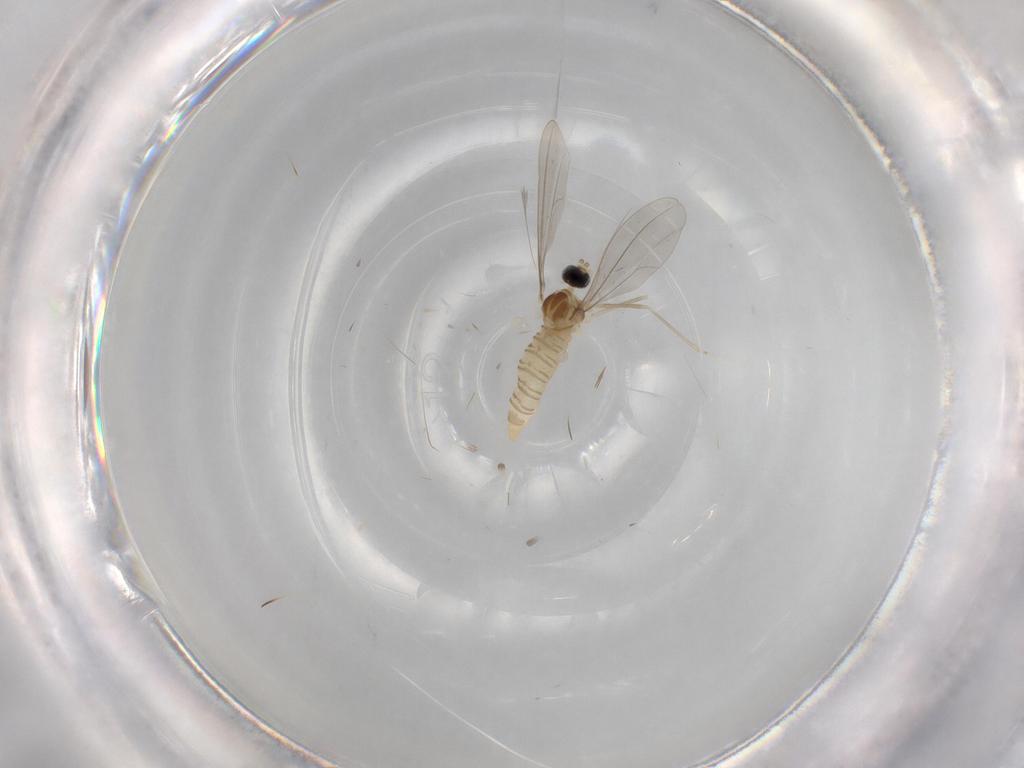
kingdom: Animalia
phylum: Arthropoda
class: Insecta
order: Diptera
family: Cecidomyiidae
